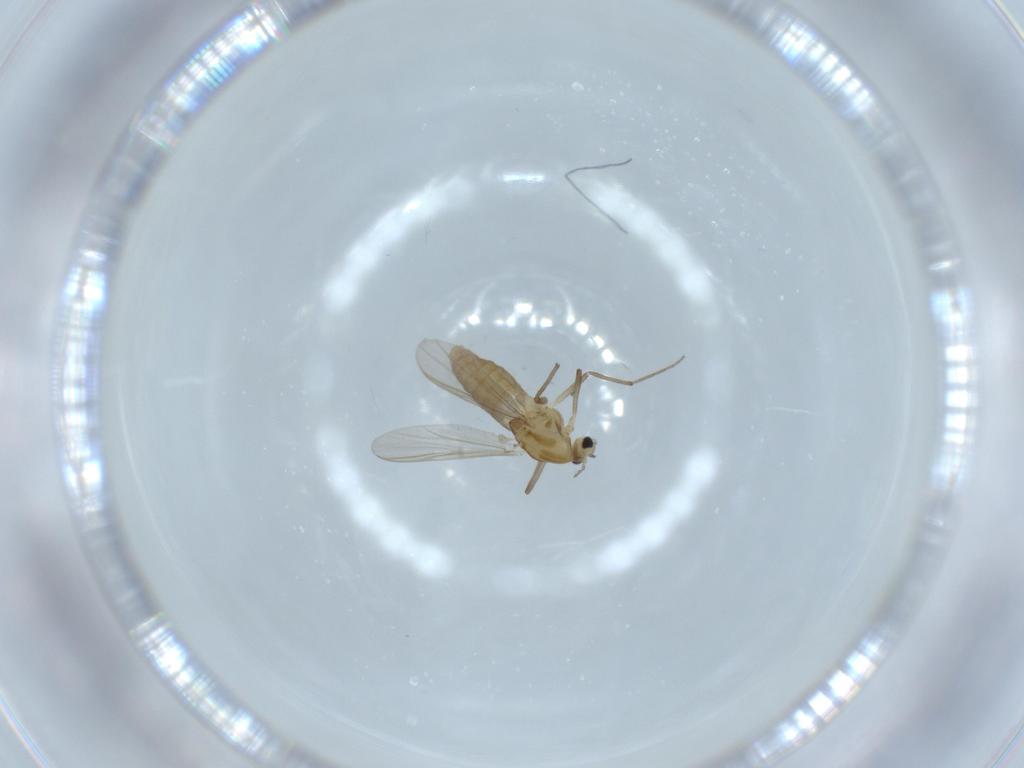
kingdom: Animalia
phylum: Arthropoda
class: Insecta
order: Diptera
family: Chironomidae
